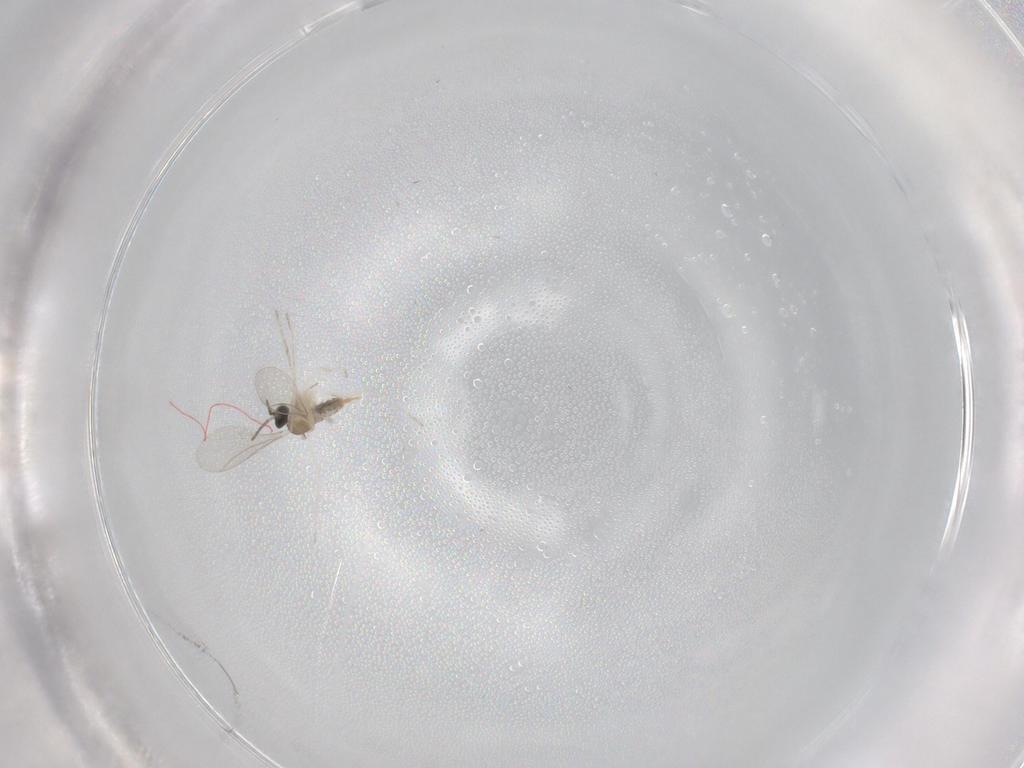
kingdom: Animalia
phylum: Arthropoda
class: Insecta
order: Diptera
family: Cecidomyiidae
